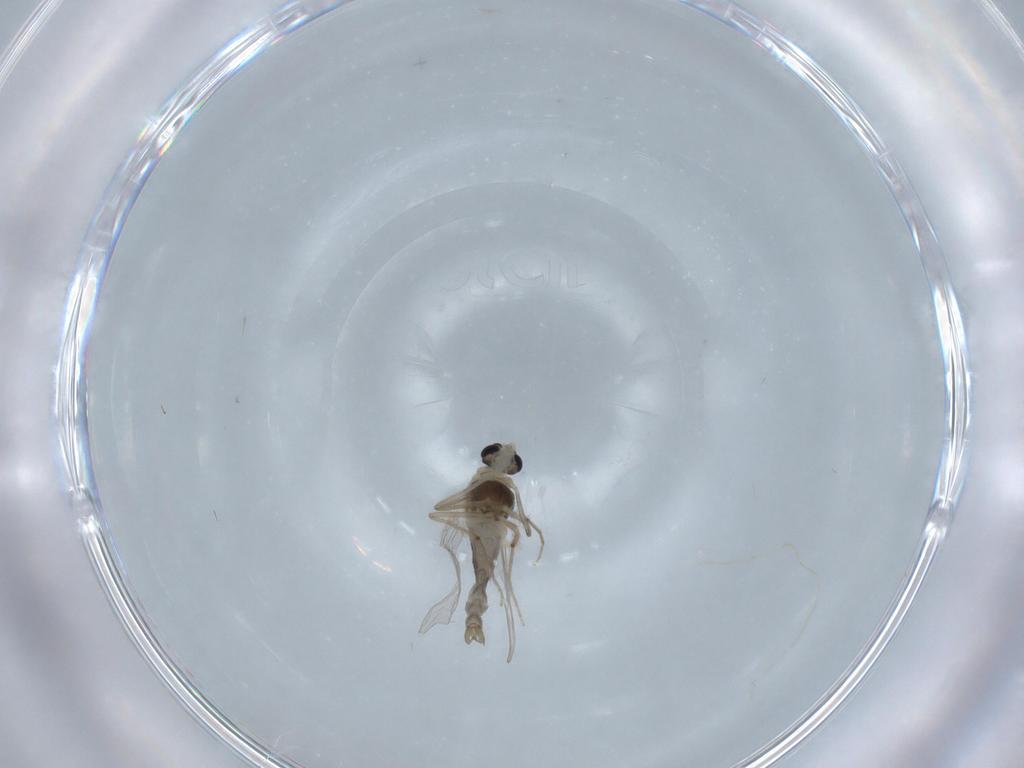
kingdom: Animalia
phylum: Arthropoda
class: Insecta
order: Diptera
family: Chironomidae
